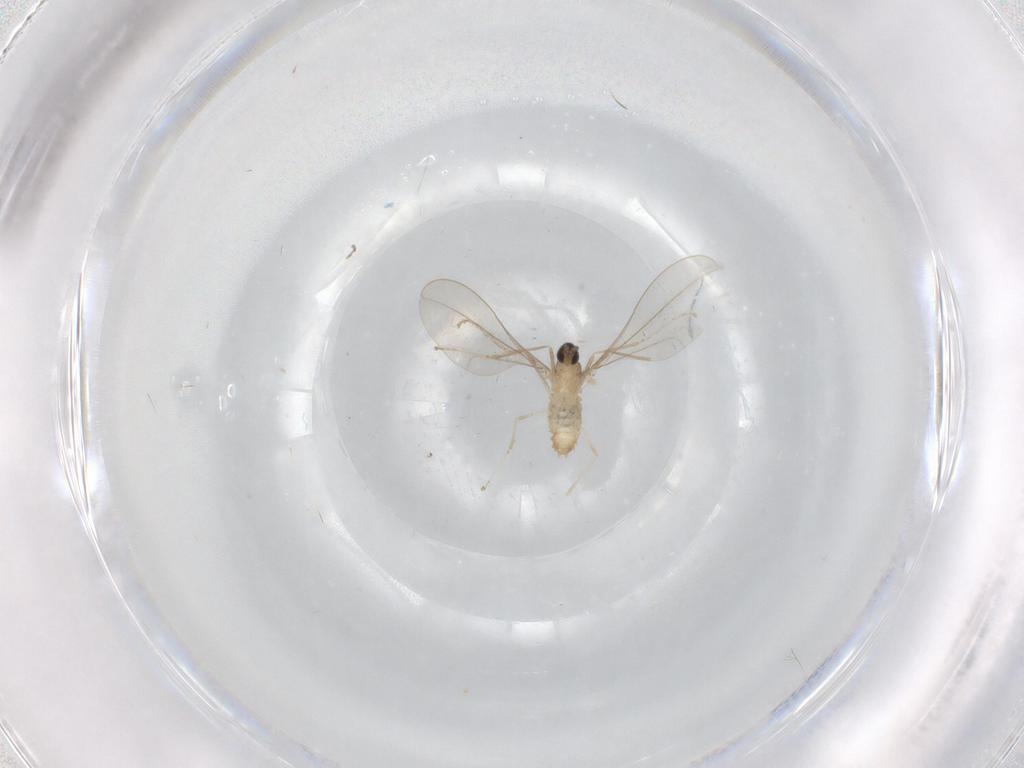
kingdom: Animalia
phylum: Arthropoda
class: Insecta
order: Diptera
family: Cecidomyiidae
